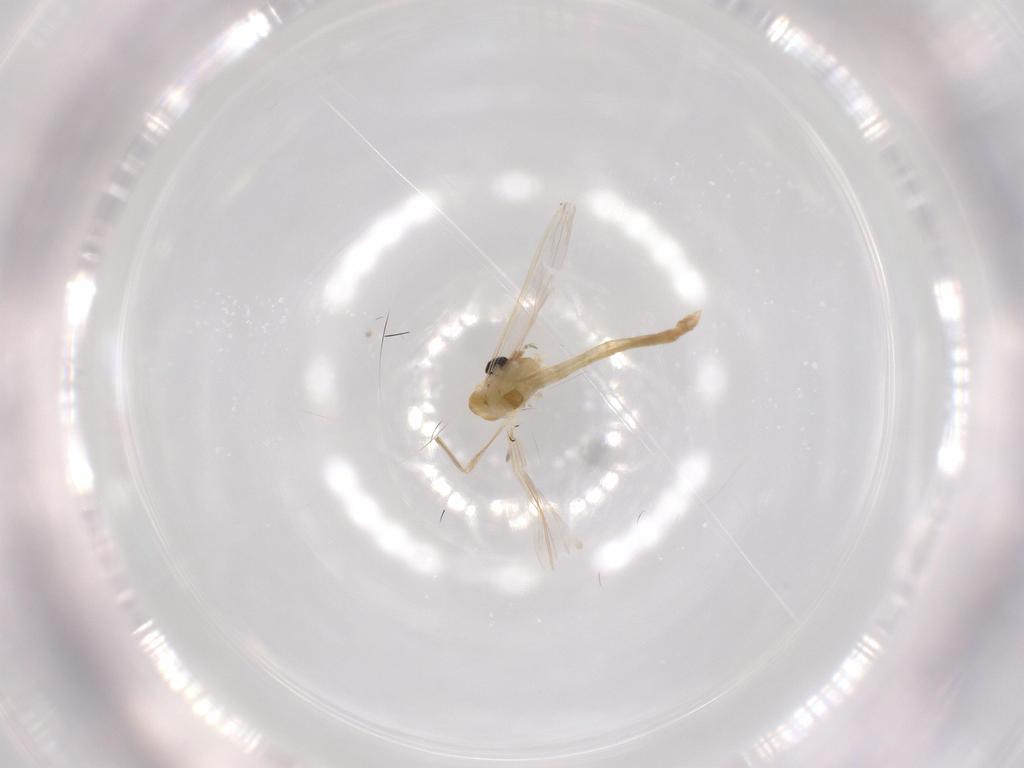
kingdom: Animalia
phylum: Arthropoda
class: Insecta
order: Diptera
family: Chironomidae
